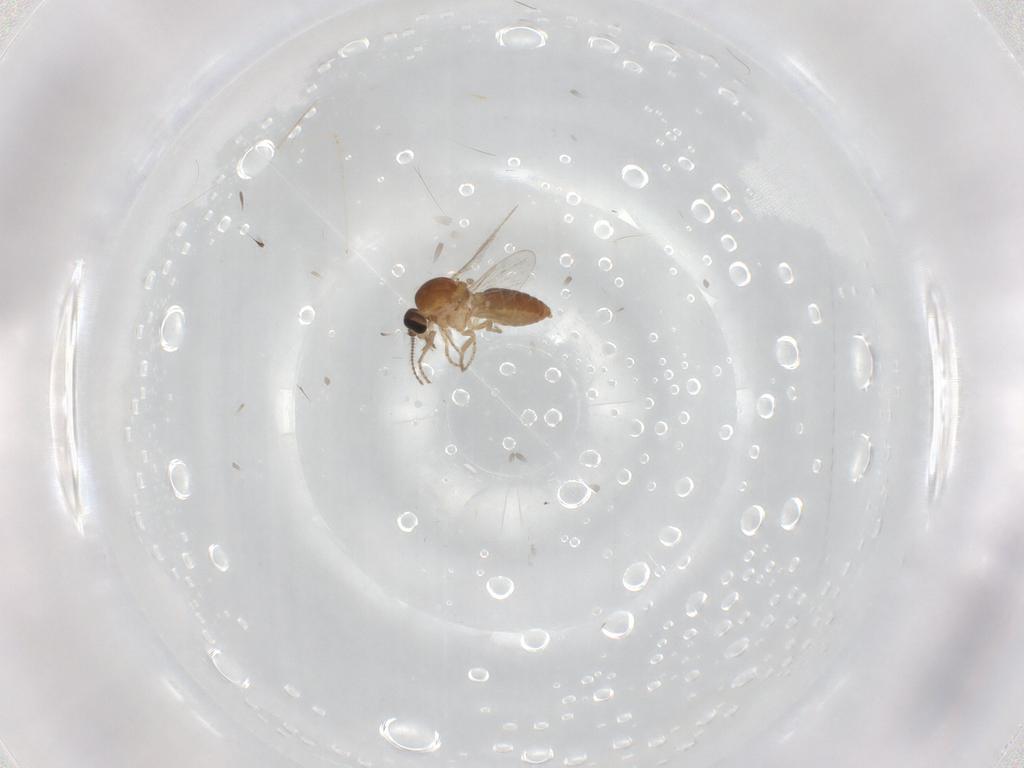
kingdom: Animalia
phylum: Arthropoda
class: Insecta
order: Diptera
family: Ceratopogonidae
